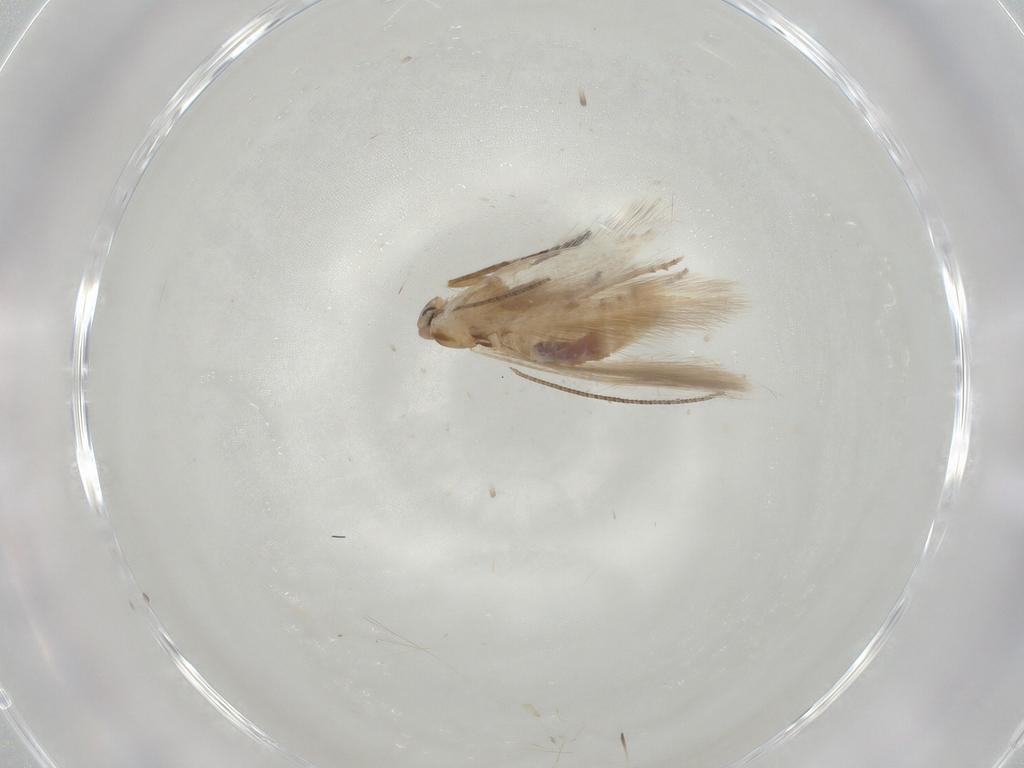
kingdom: Animalia
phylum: Arthropoda
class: Insecta
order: Lepidoptera
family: Bucculatricidae
